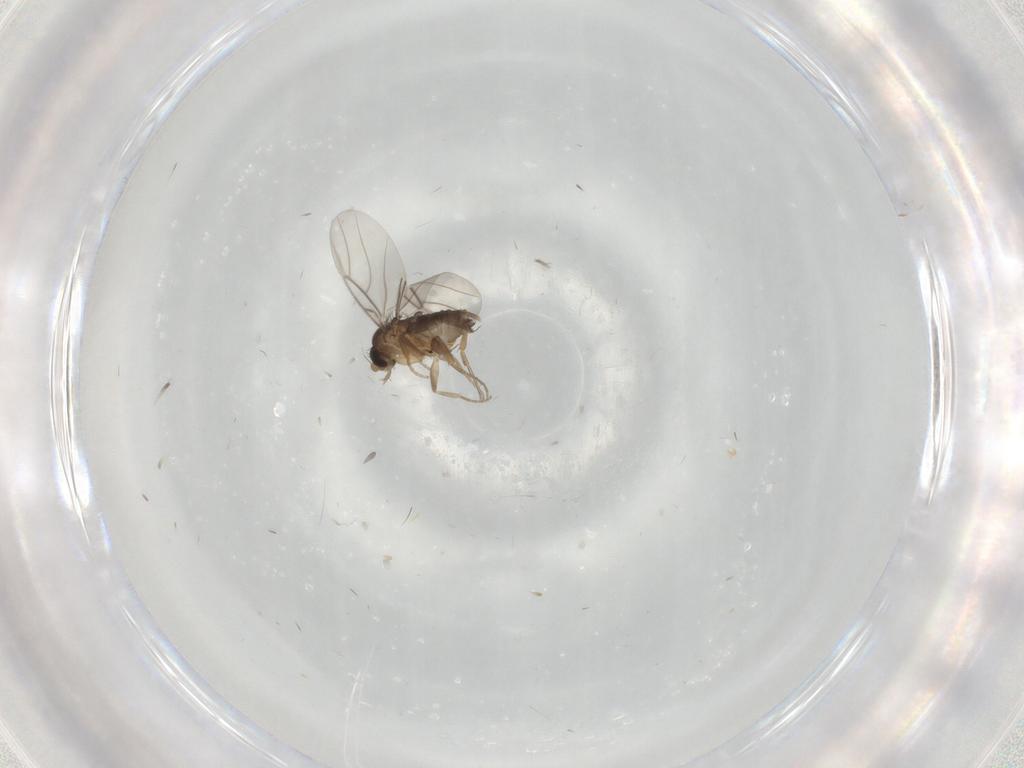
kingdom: Animalia
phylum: Arthropoda
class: Insecta
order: Diptera
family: Phoridae
